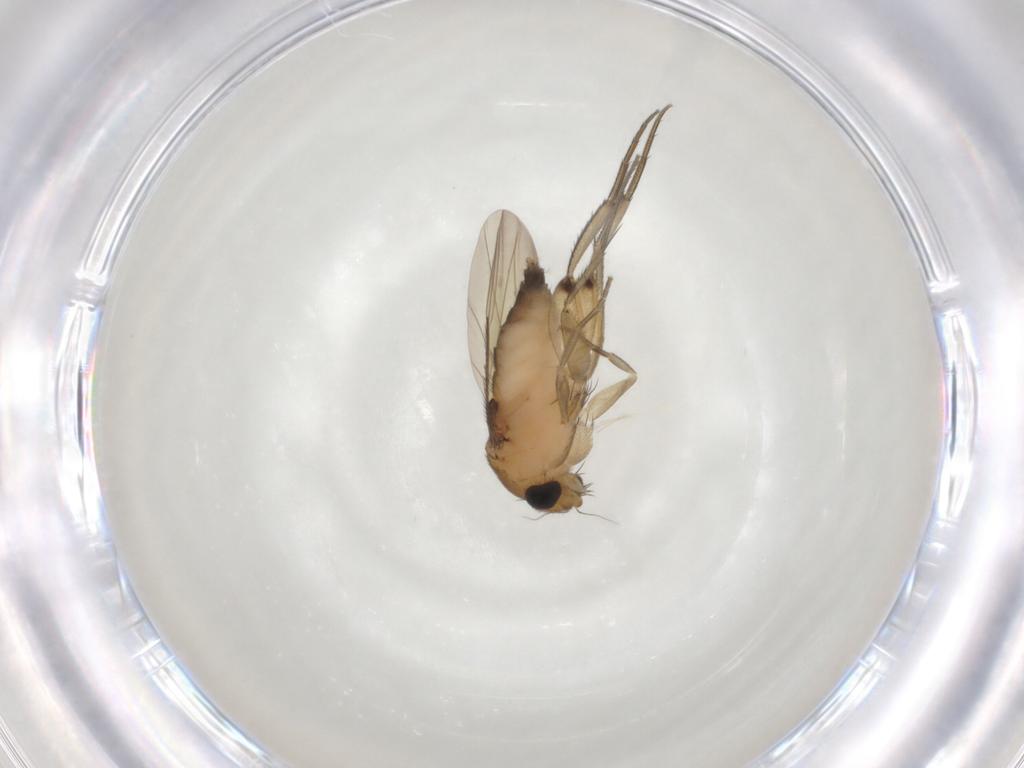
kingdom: Animalia
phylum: Arthropoda
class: Insecta
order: Diptera
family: Phoridae
